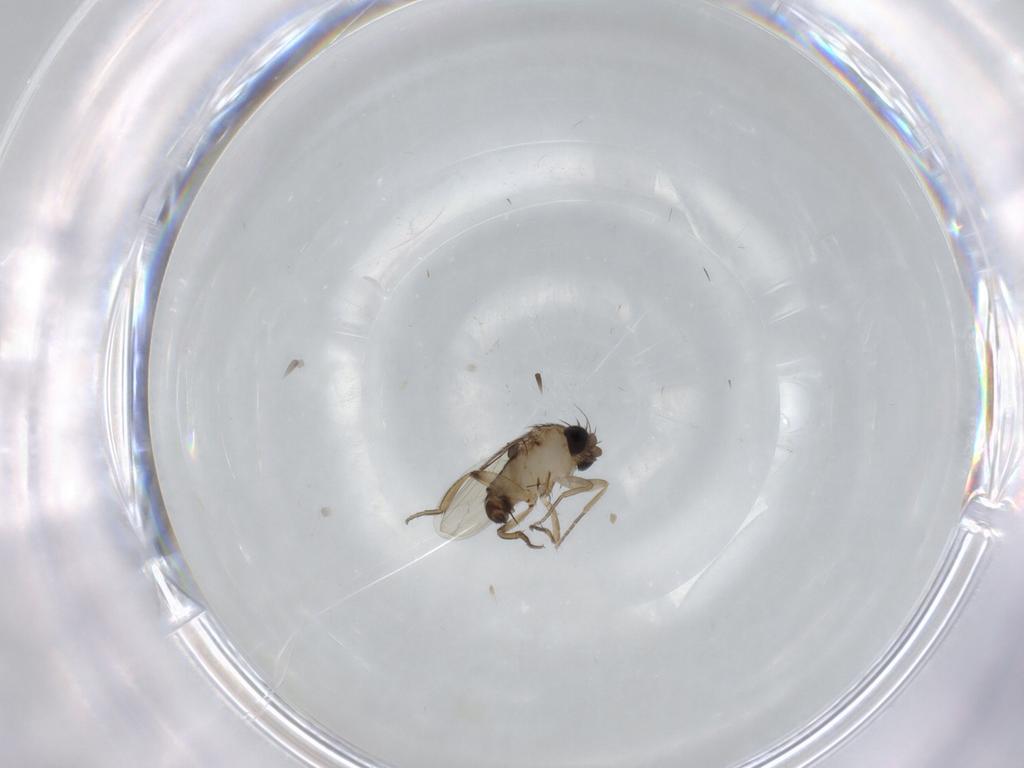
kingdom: Animalia
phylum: Arthropoda
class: Insecta
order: Diptera
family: Phoridae
